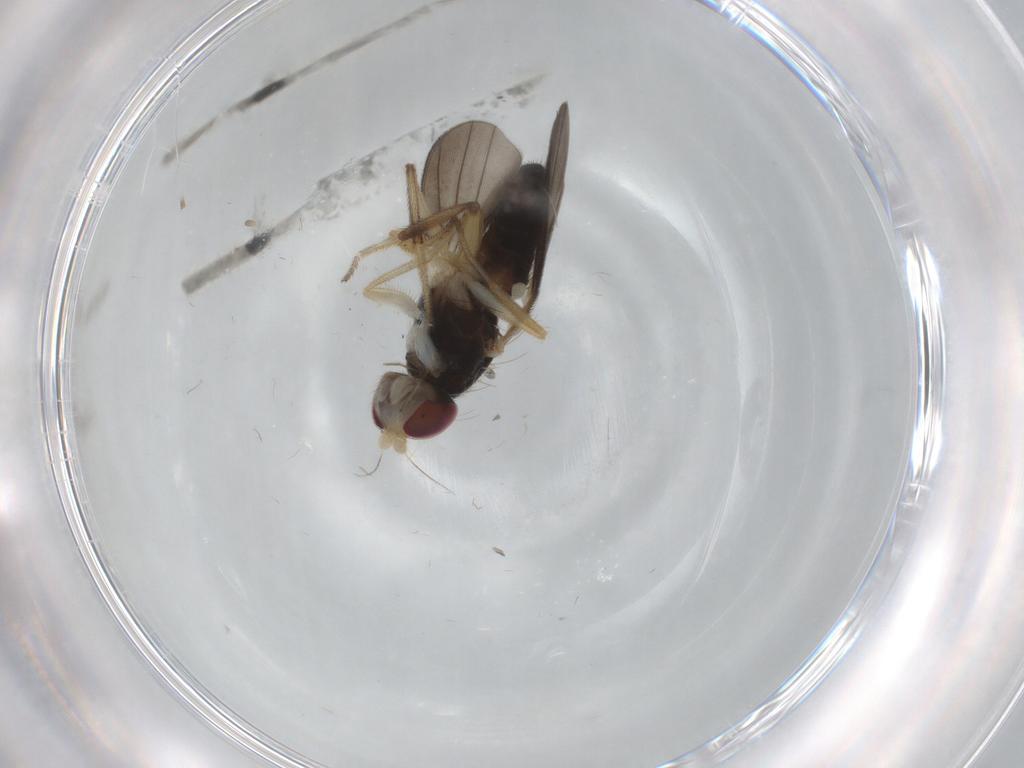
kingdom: Animalia
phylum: Arthropoda
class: Insecta
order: Diptera
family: Clusiidae
